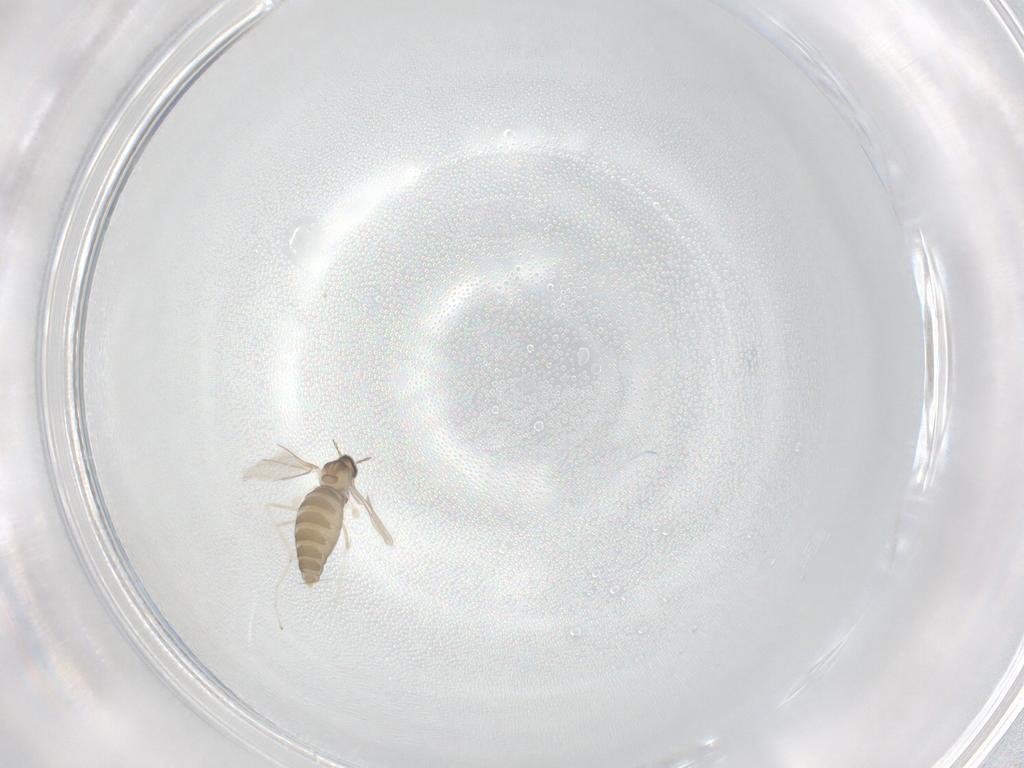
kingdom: Animalia
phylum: Arthropoda
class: Insecta
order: Diptera
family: Cecidomyiidae
